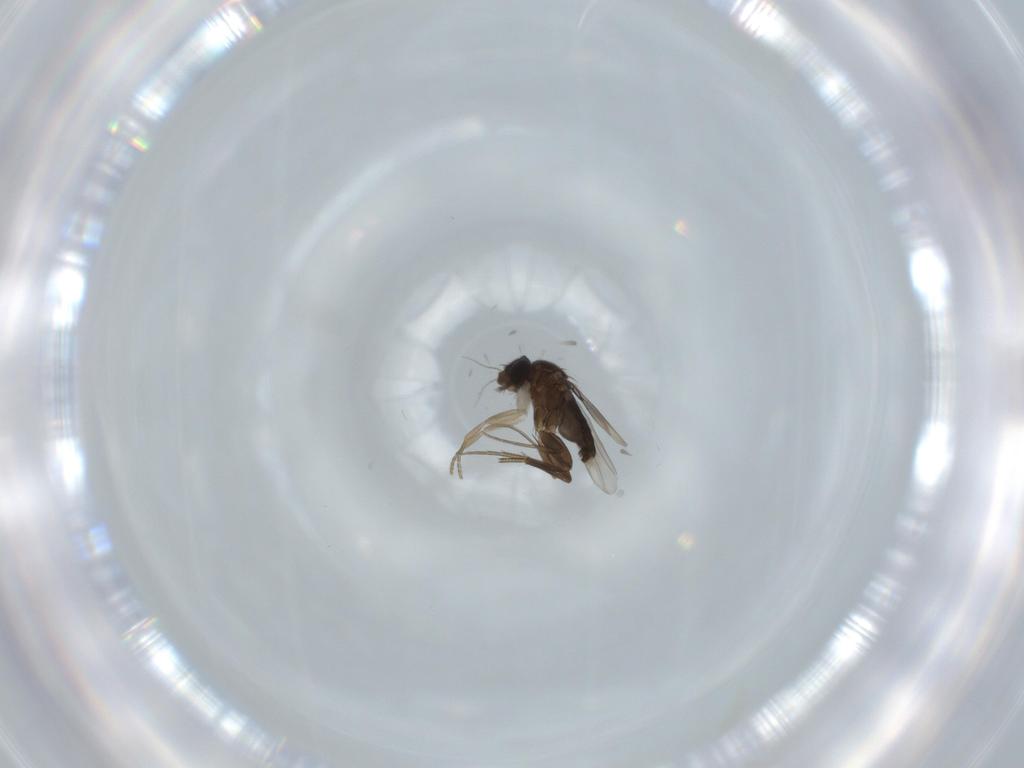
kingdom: Animalia
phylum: Arthropoda
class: Insecta
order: Diptera
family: Phoridae
